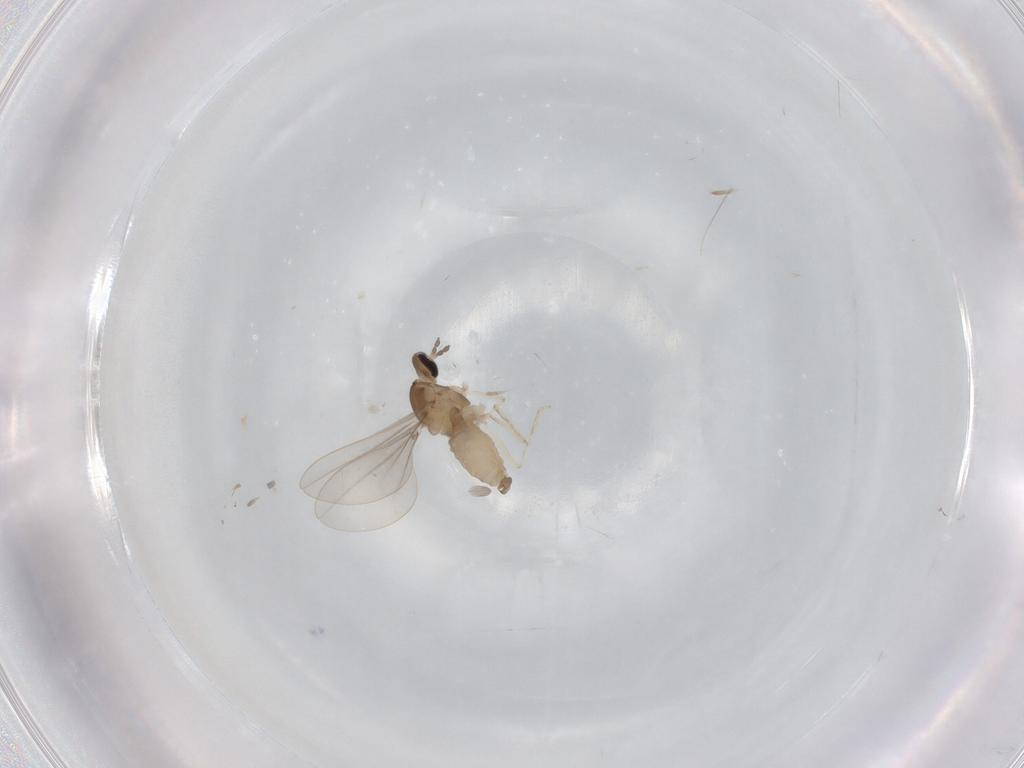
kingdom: Animalia
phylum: Arthropoda
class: Insecta
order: Diptera
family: Cecidomyiidae
